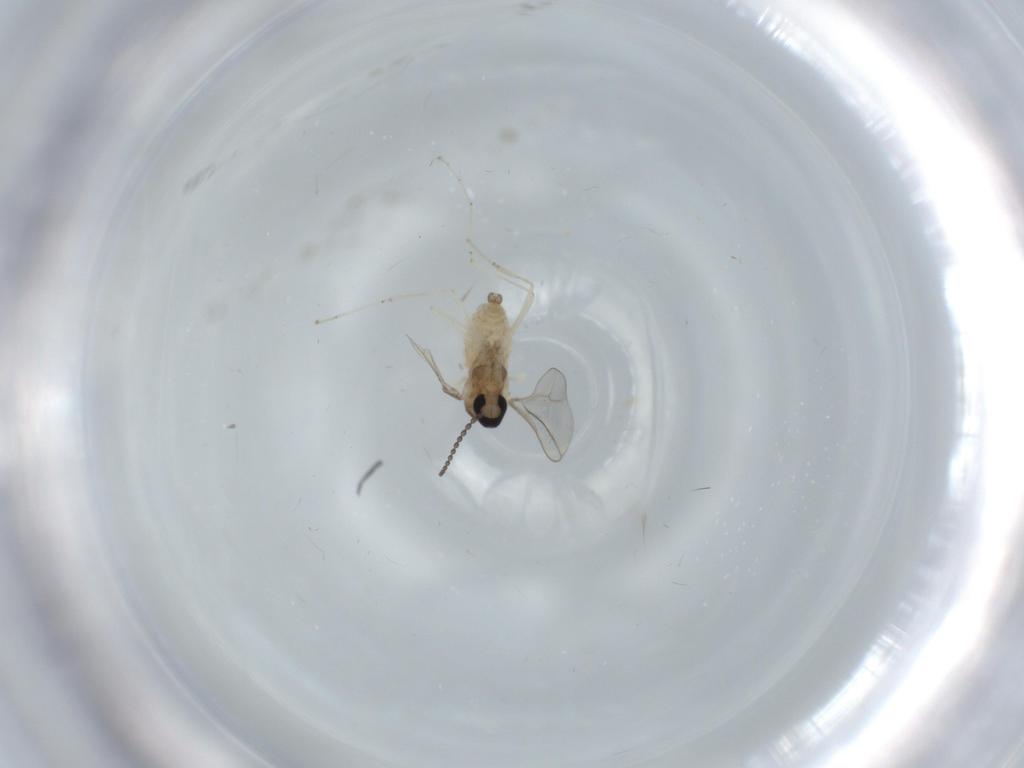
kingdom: Animalia
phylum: Arthropoda
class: Insecta
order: Diptera
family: Cecidomyiidae
